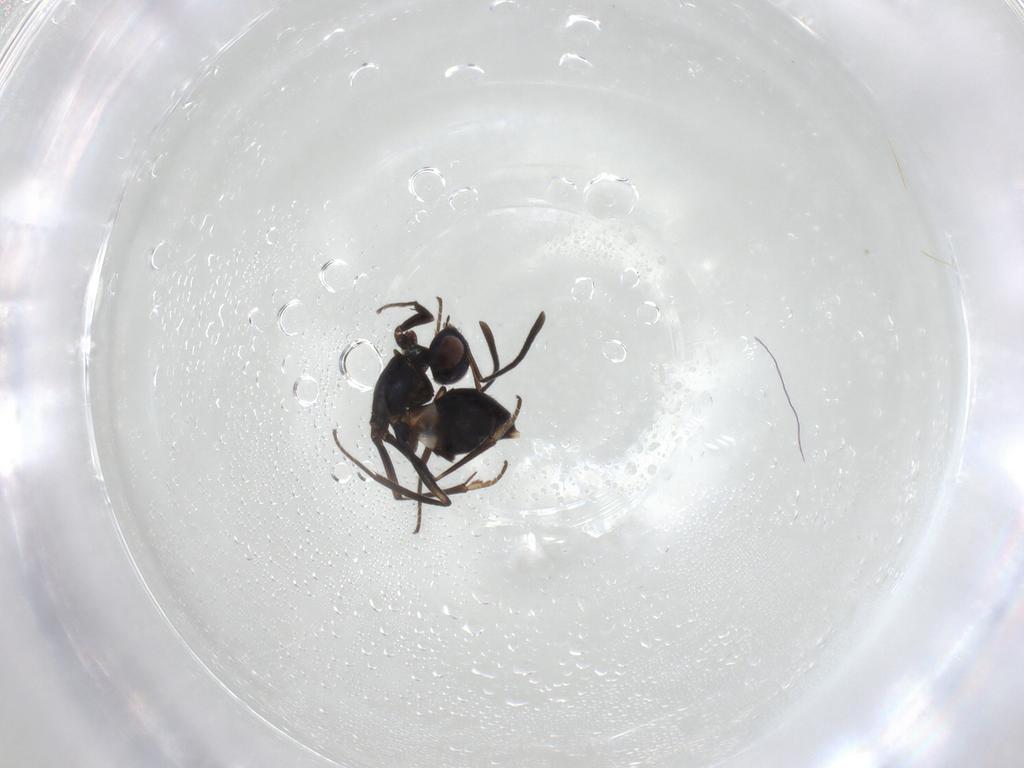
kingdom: Animalia
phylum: Arthropoda
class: Insecta
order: Hymenoptera
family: Eupelmidae
